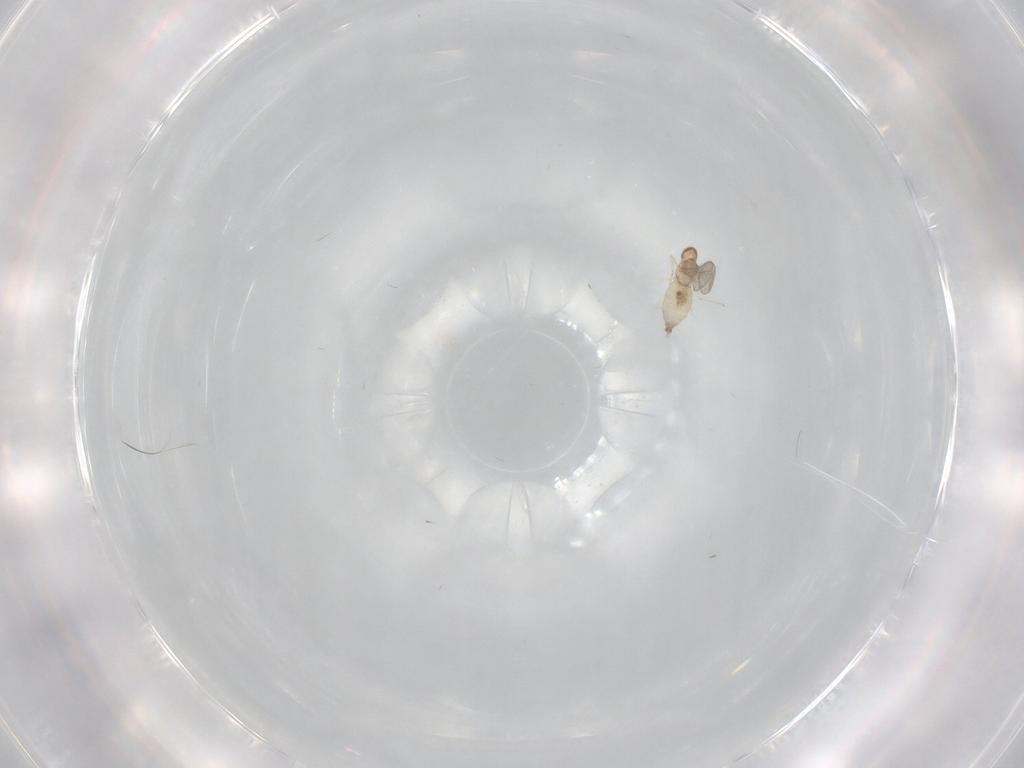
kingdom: Animalia
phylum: Arthropoda
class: Insecta
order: Diptera
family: Cecidomyiidae
